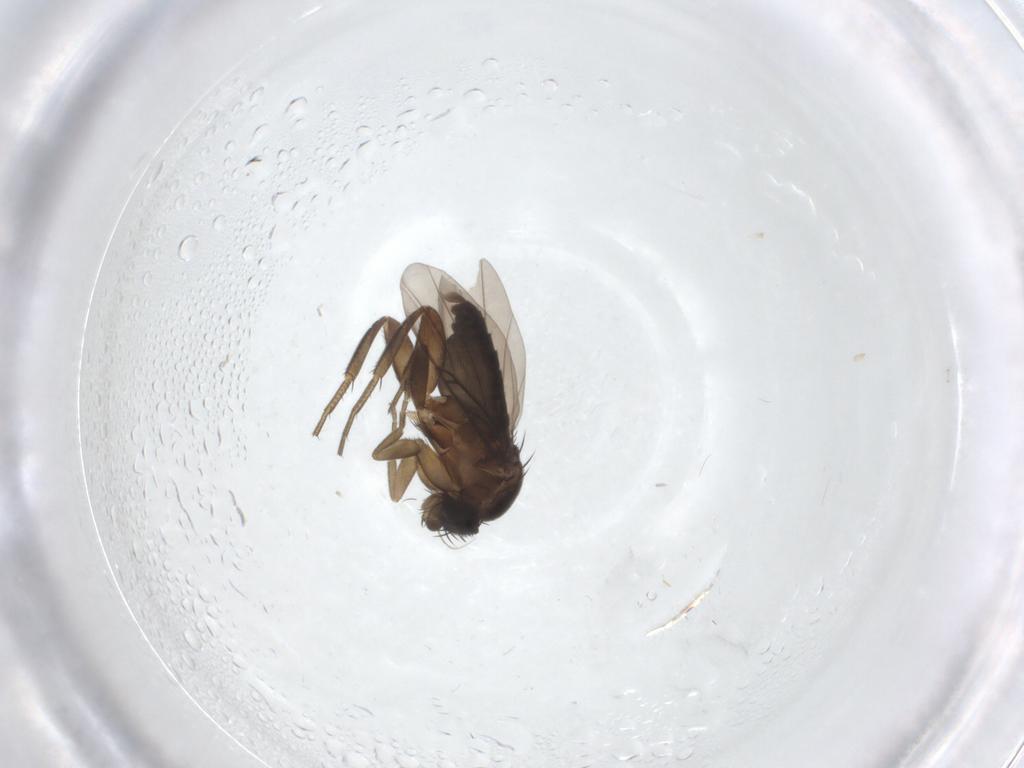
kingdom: Animalia
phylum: Arthropoda
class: Insecta
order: Diptera
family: Phoridae
